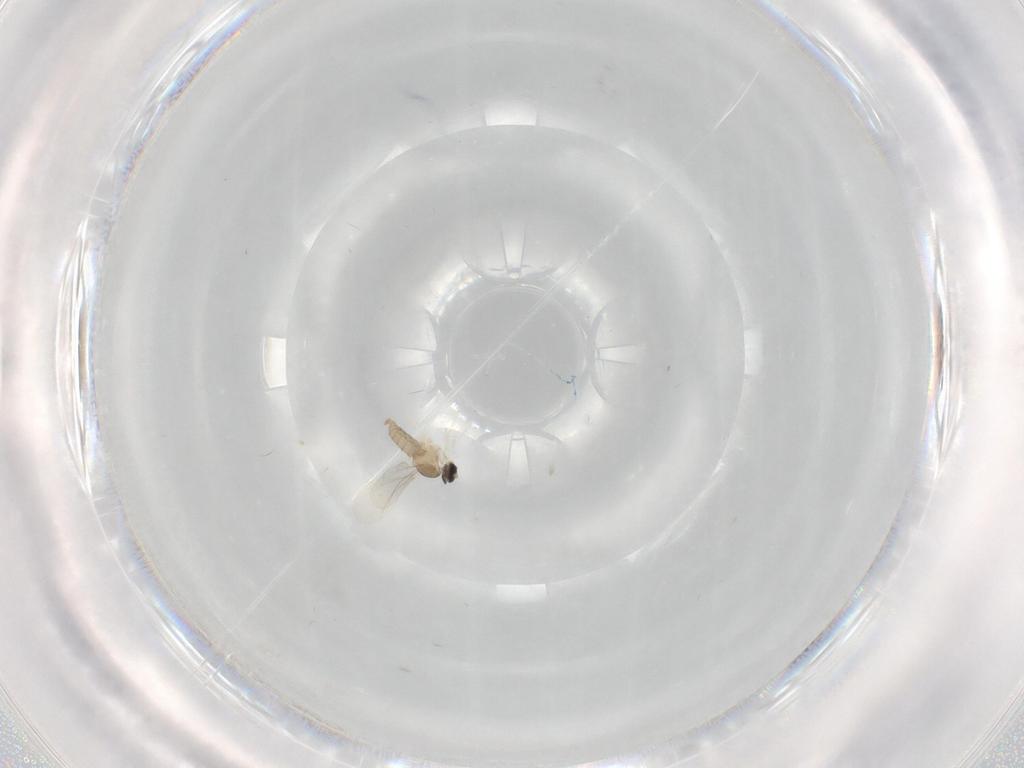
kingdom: Animalia
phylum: Arthropoda
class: Insecta
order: Diptera
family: Cecidomyiidae
